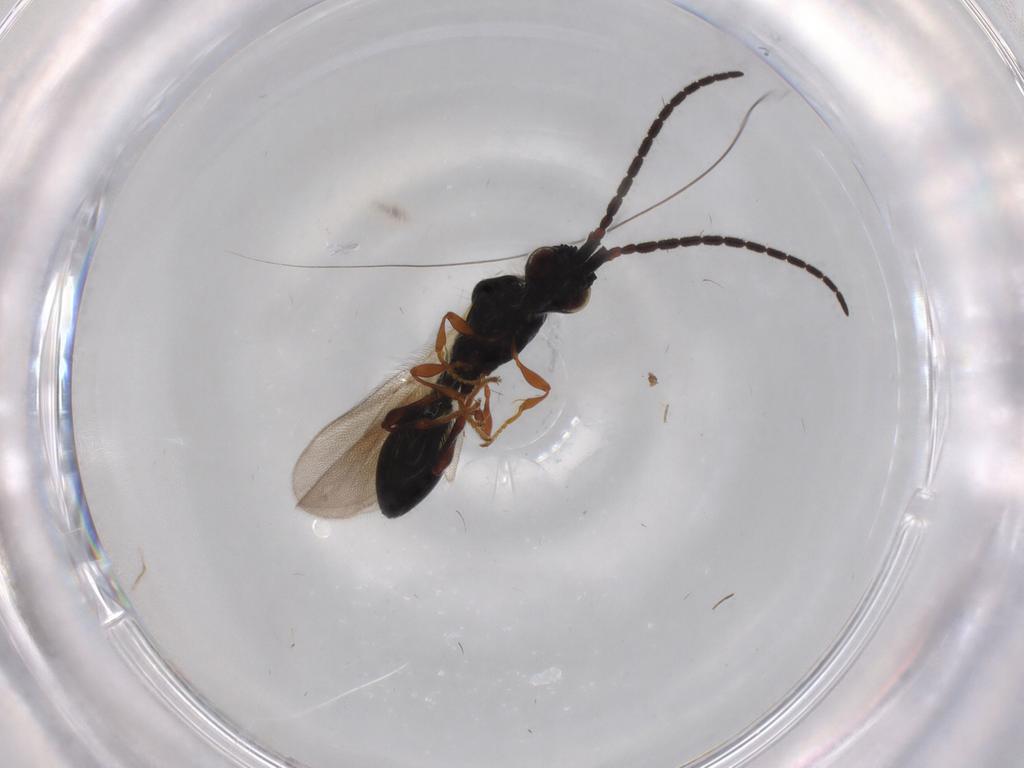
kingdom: Animalia
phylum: Arthropoda
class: Insecta
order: Hymenoptera
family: Diapriidae
